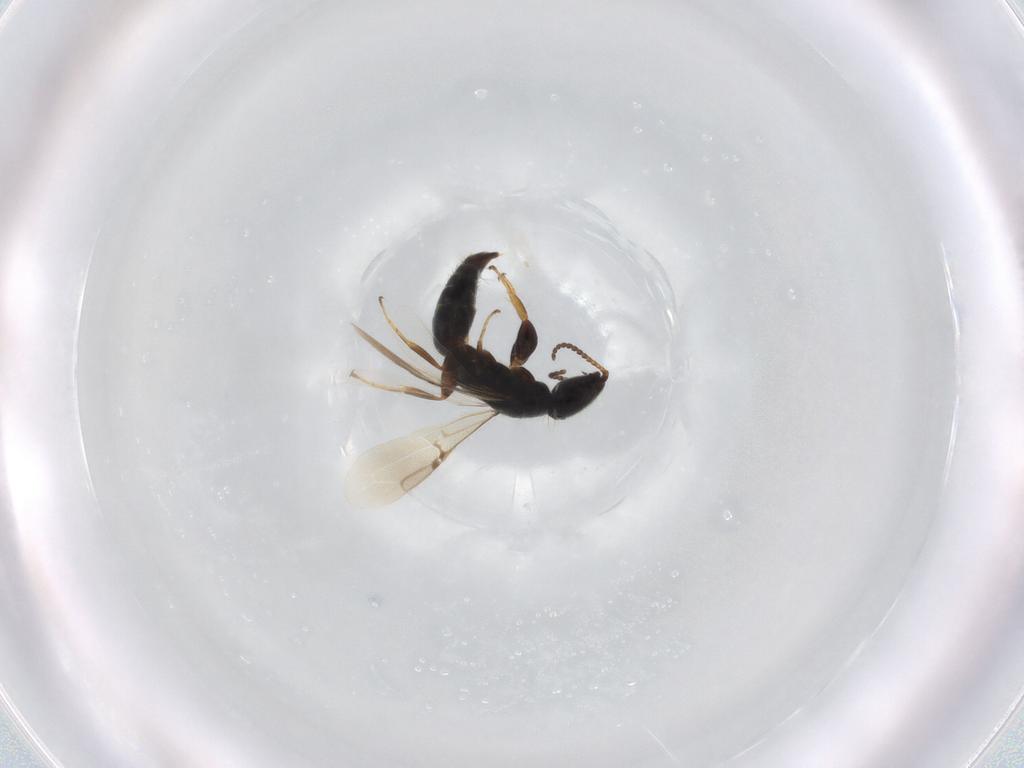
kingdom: Animalia
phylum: Arthropoda
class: Insecta
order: Hymenoptera
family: Bethylidae
